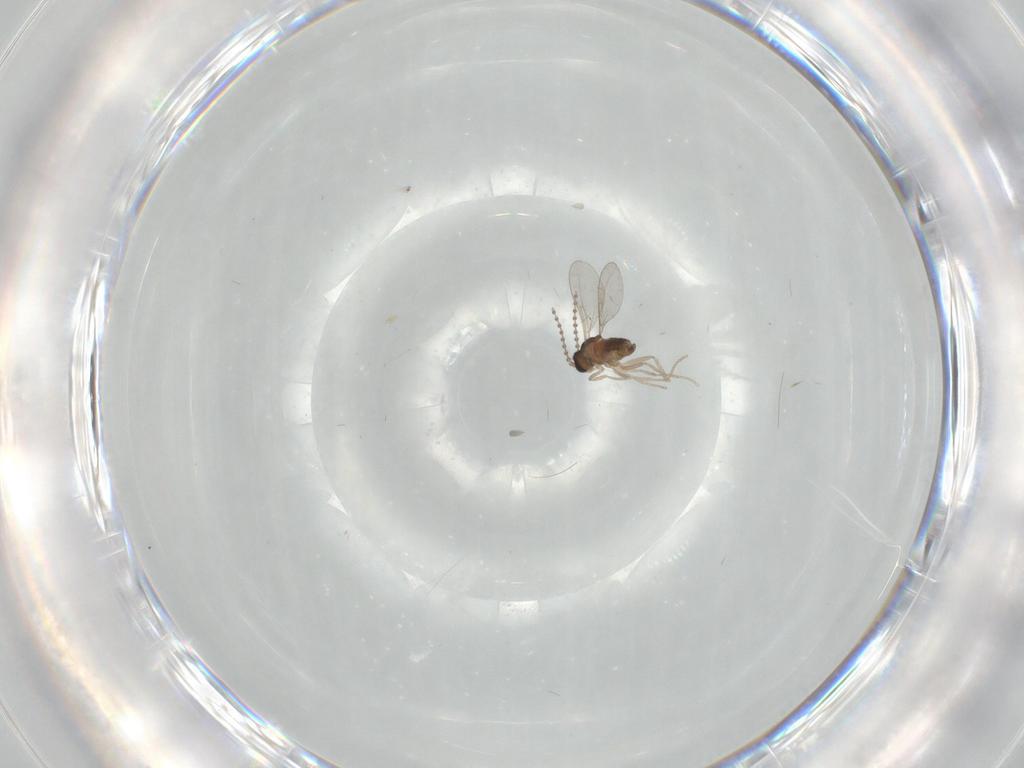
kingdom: Animalia
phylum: Arthropoda
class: Insecta
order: Diptera
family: Cecidomyiidae
